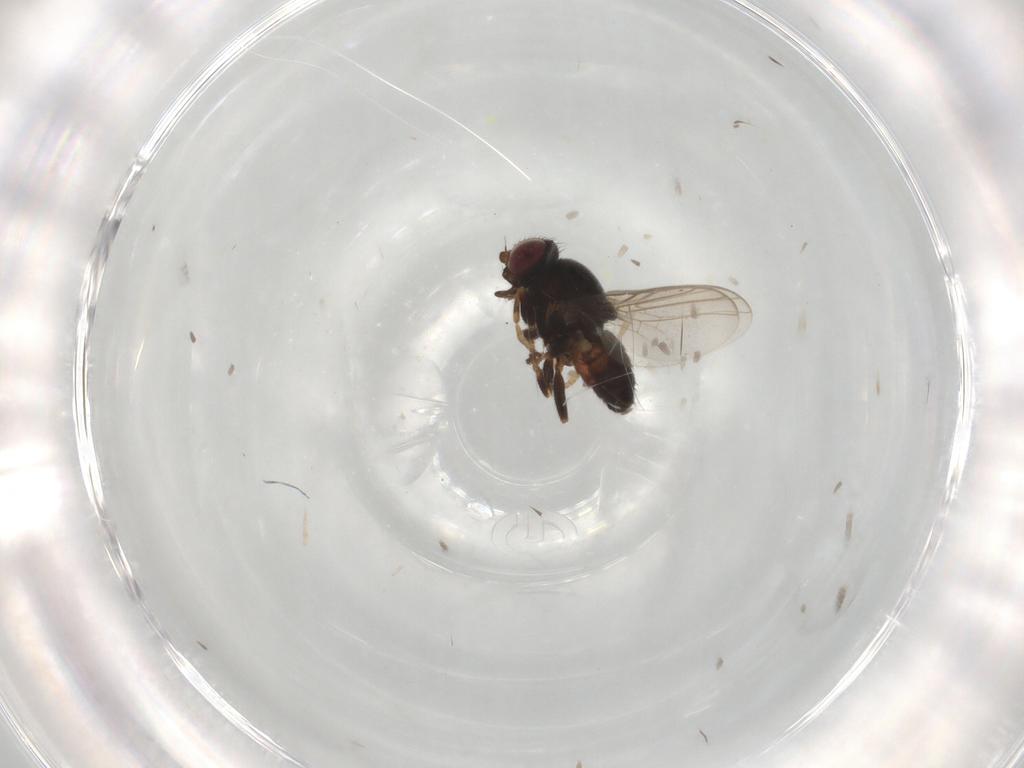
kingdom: Animalia
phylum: Arthropoda
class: Insecta
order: Diptera
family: Chloropidae
